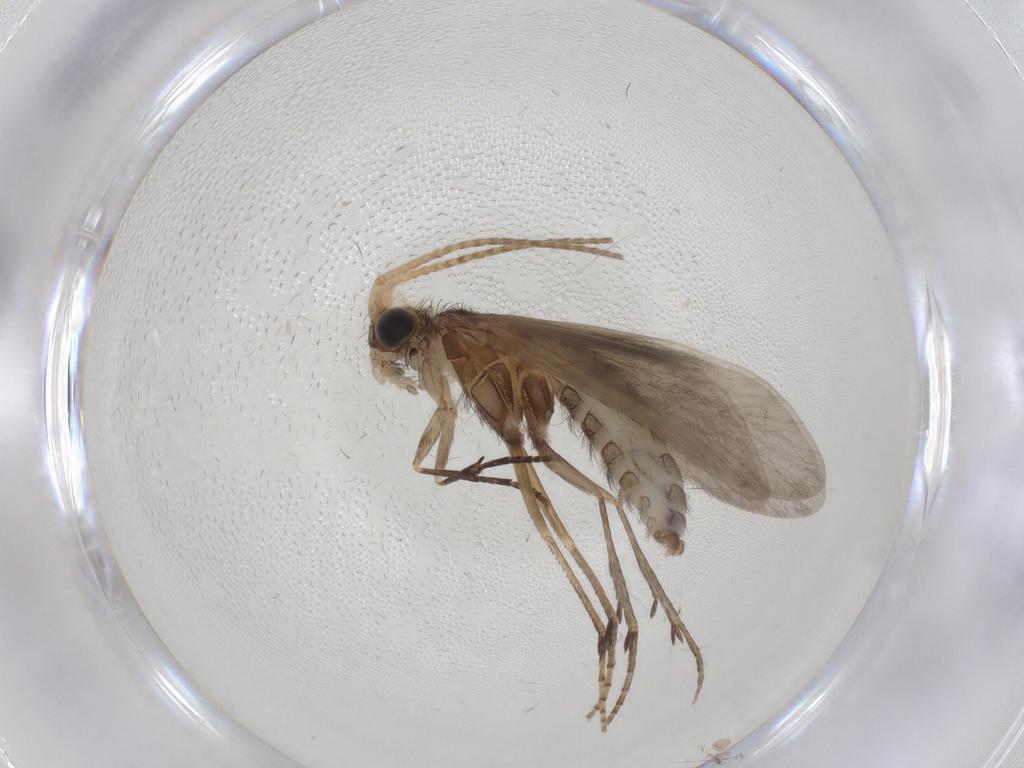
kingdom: Animalia
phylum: Arthropoda
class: Insecta
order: Trichoptera
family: Helicopsychidae
